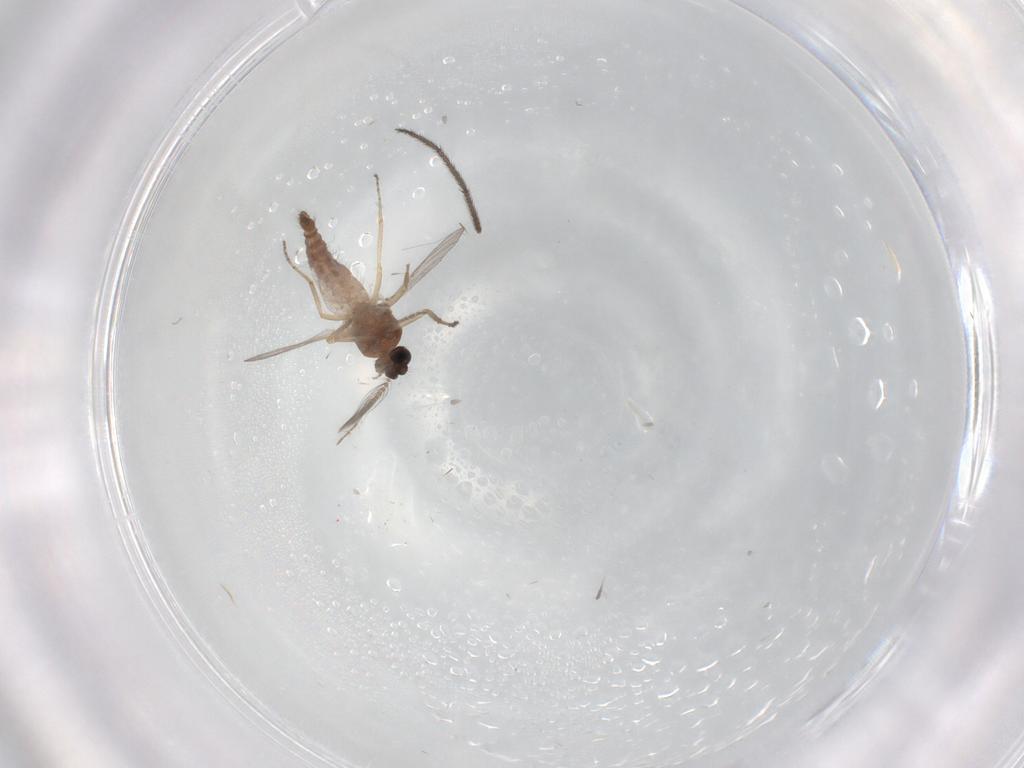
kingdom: Animalia
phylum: Arthropoda
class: Insecta
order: Diptera
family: Ceratopogonidae
